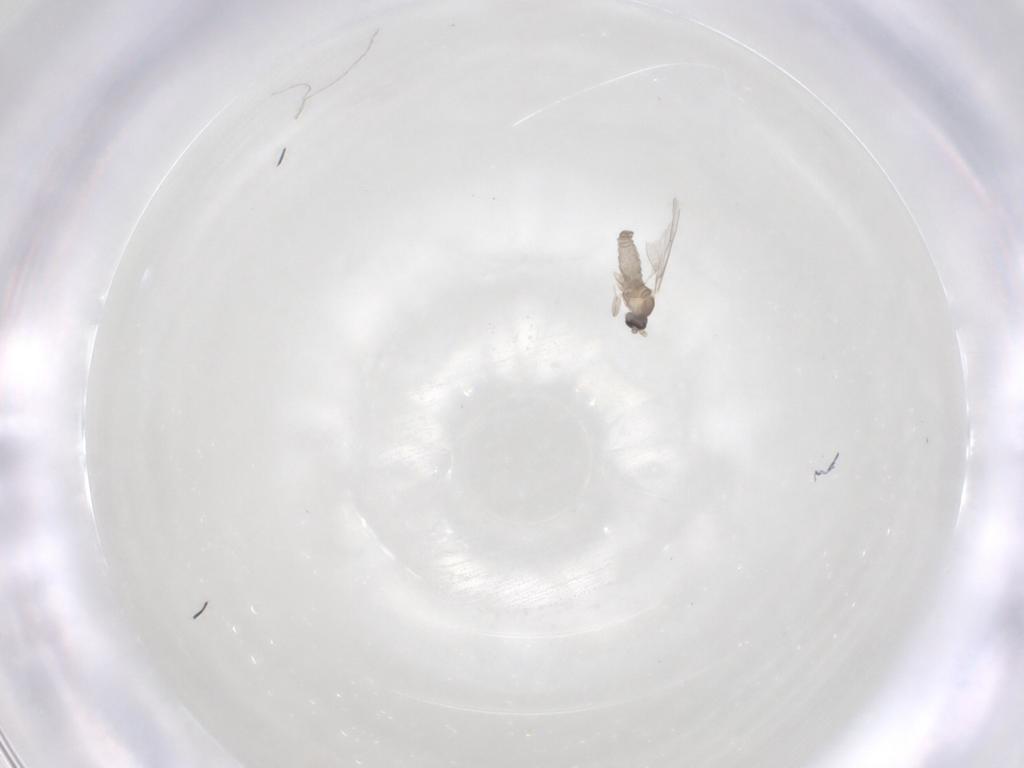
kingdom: Animalia
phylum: Arthropoda
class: Insecta
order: Diptera
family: Cecidomyiidae
